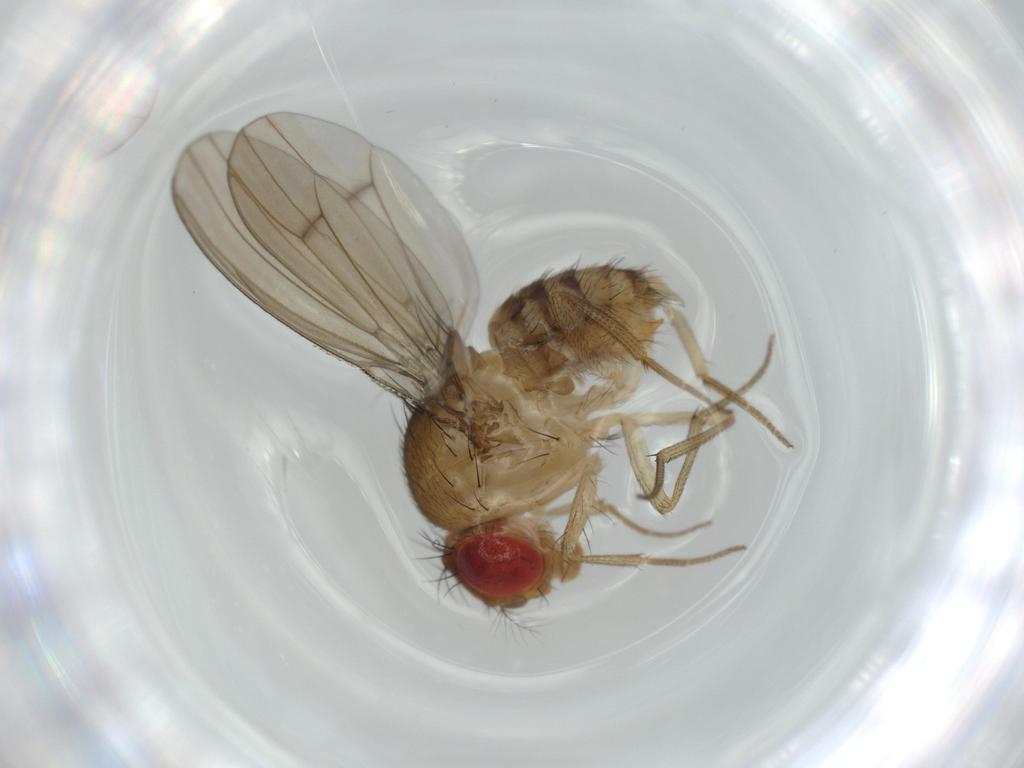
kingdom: Animalia
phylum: Arthropoda
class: Insecta
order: Diptera
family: Drosophilidae
